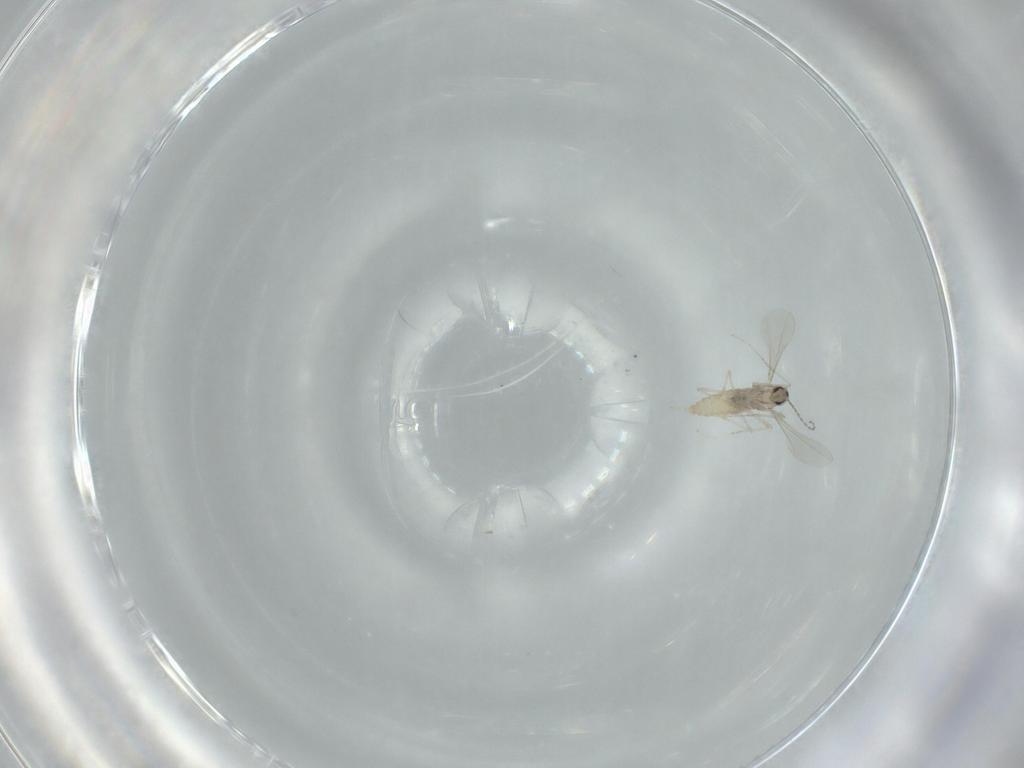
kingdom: Animalia
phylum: Arthropoda
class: Insecta
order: Diptera
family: Cecidomyiidae
